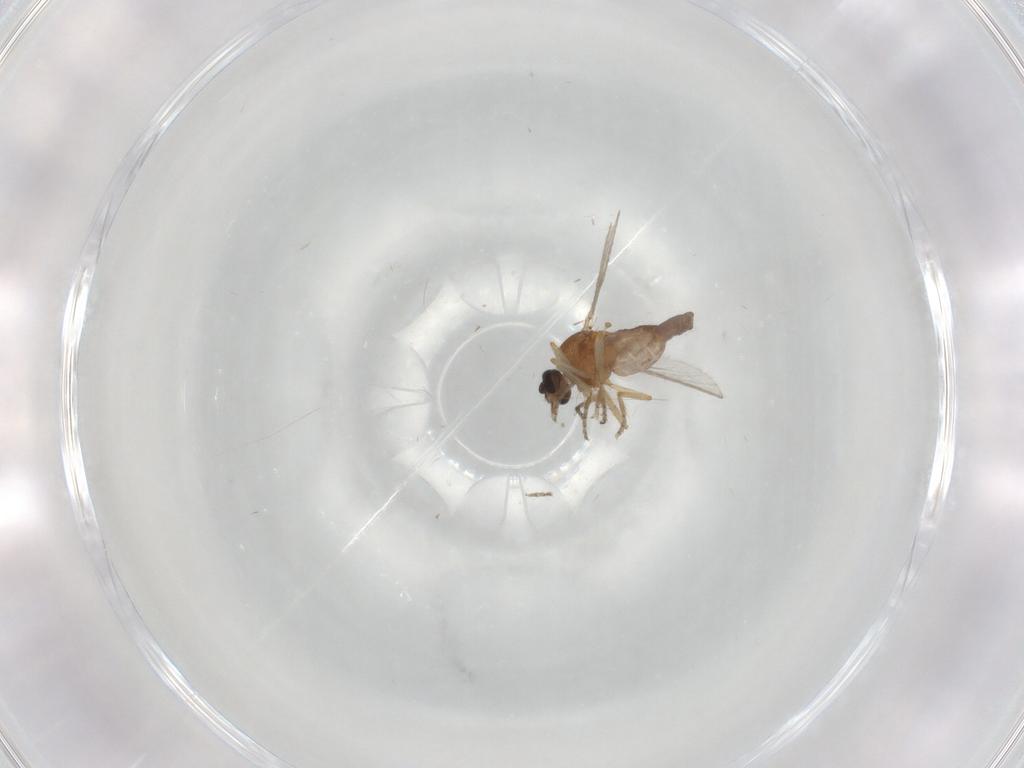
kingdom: Animalia
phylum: Arthropoda
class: Insecta
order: Diptera
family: Ceratopogonidae
